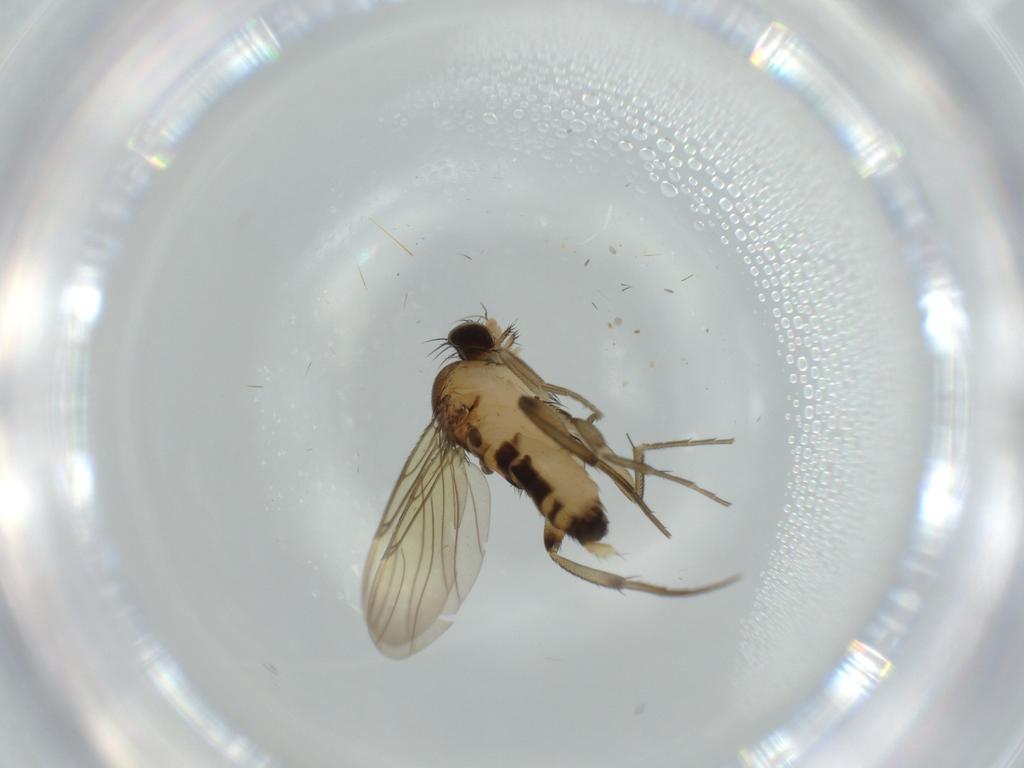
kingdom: Animalia
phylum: Arthropoda
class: Insecta
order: Diptera
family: Phoridae
